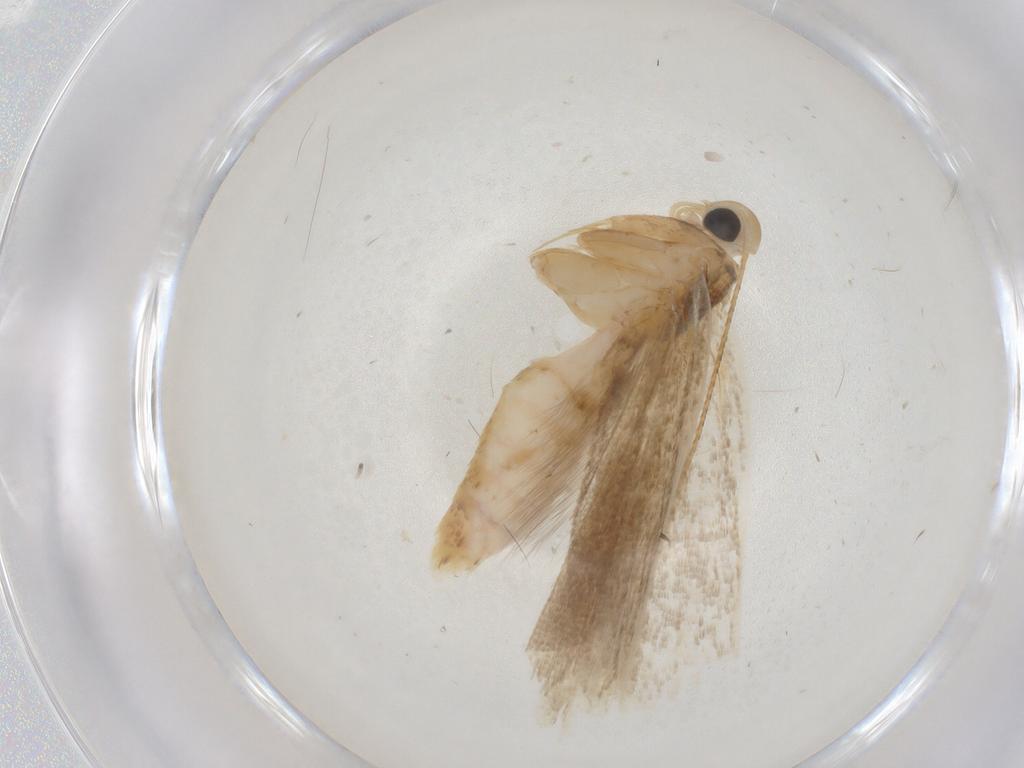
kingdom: Animalia
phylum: Arthropoda
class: Insecta
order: Lepidoptera
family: Gelechiidae
